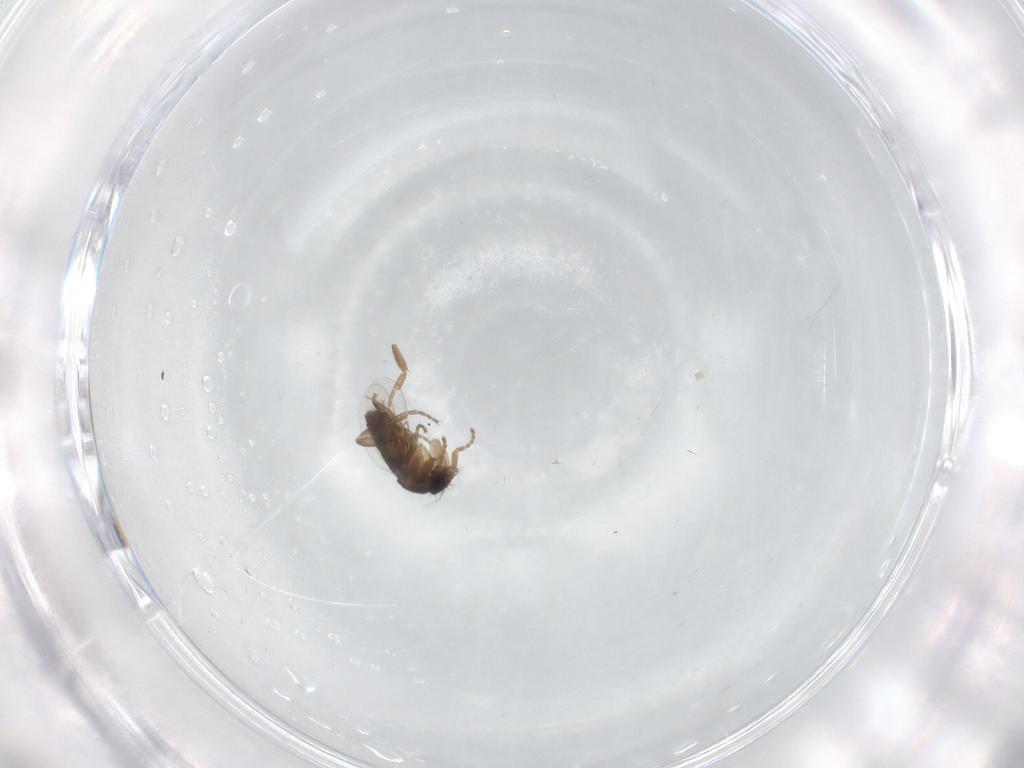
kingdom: Animalia
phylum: Arthropoda
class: Insecta
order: Diptera
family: Phoridae
